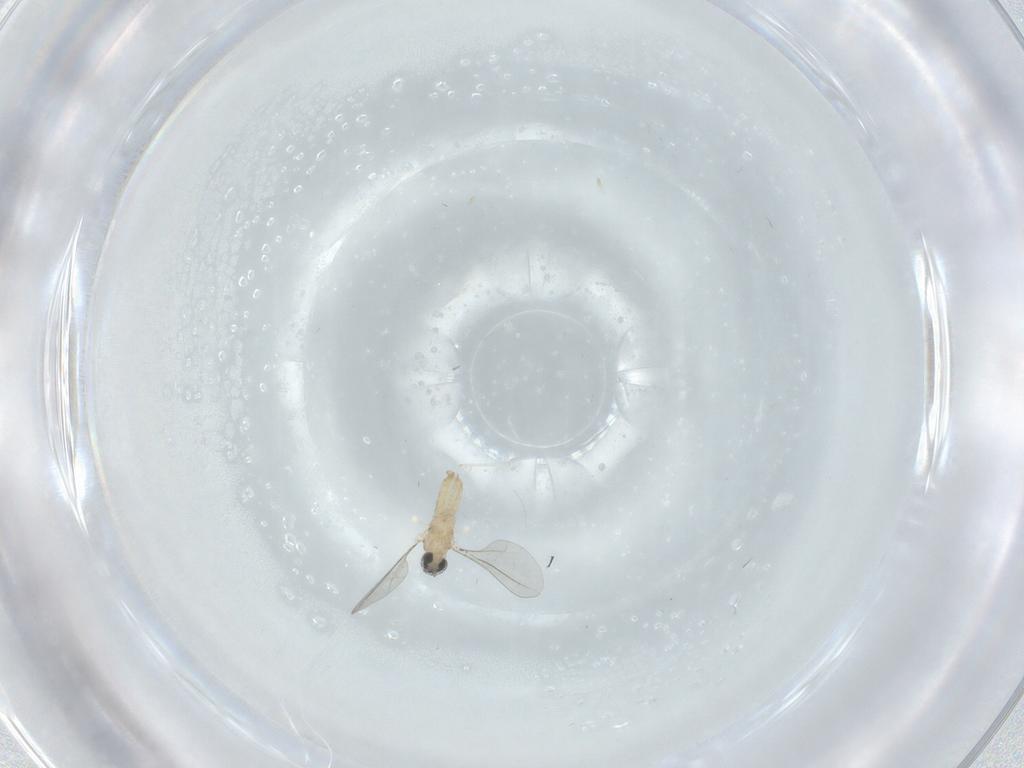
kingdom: Animalia
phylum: Arthropoda
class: Insecta
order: Diptera
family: Cecidomyiidae
